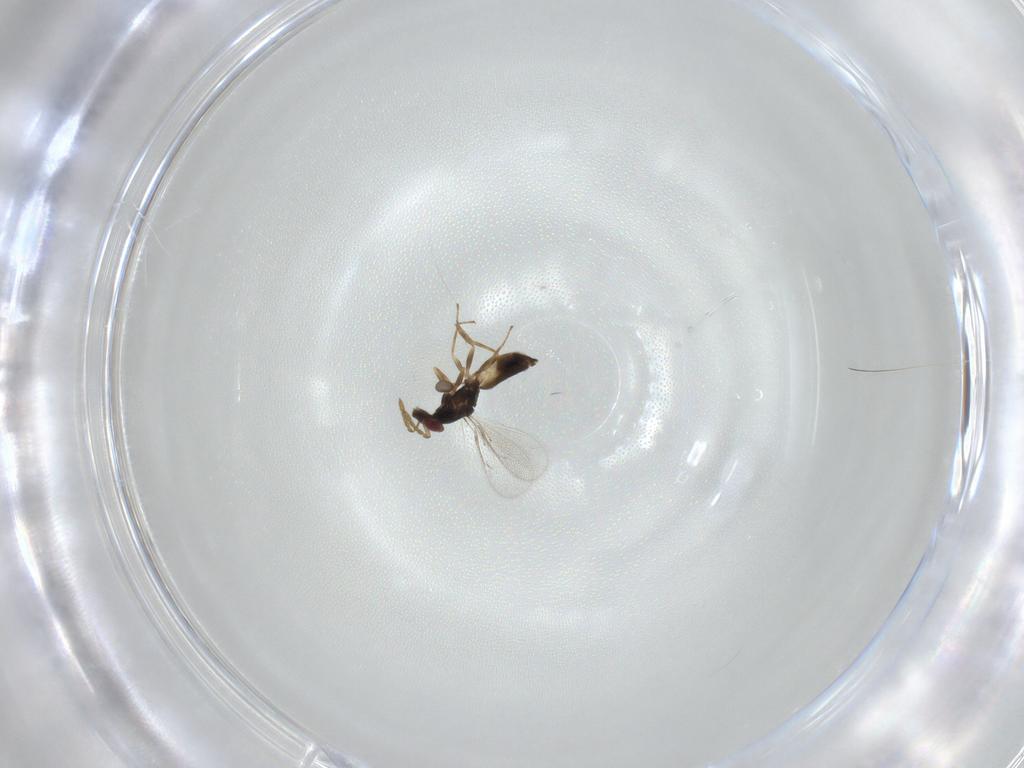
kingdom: Animalia
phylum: Arthropoda
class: Insecta
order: Hymenoptera
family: Eulophidae
